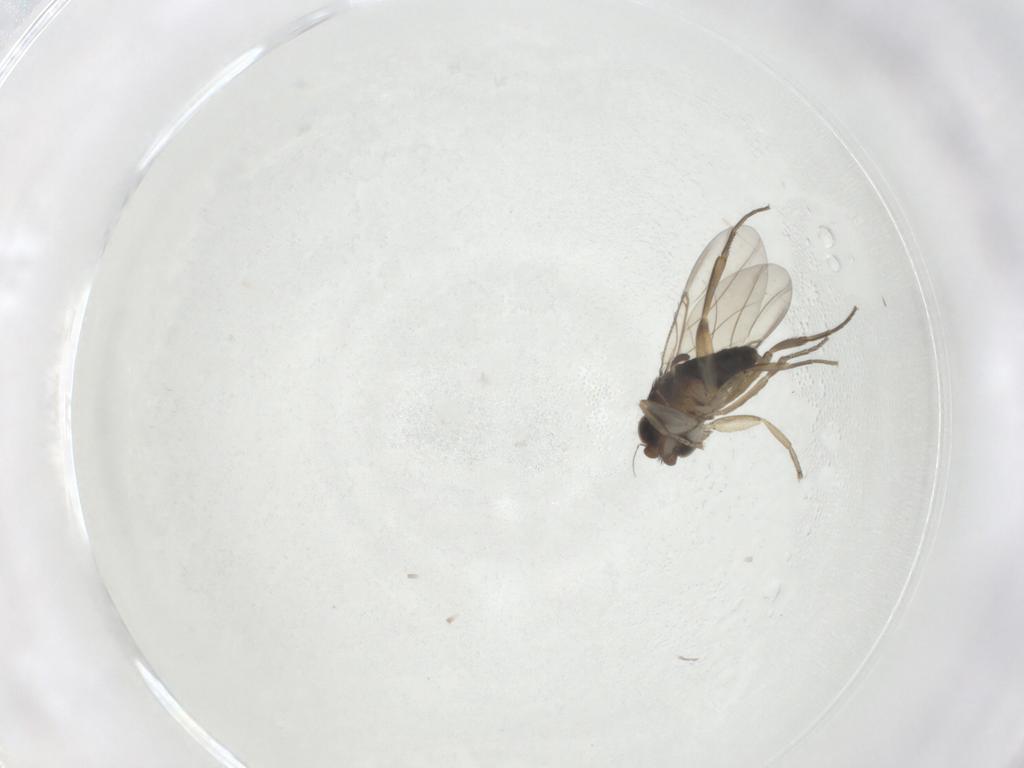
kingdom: Animalia
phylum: Arthropoda
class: Insecta
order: Diptera
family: Phoridae
